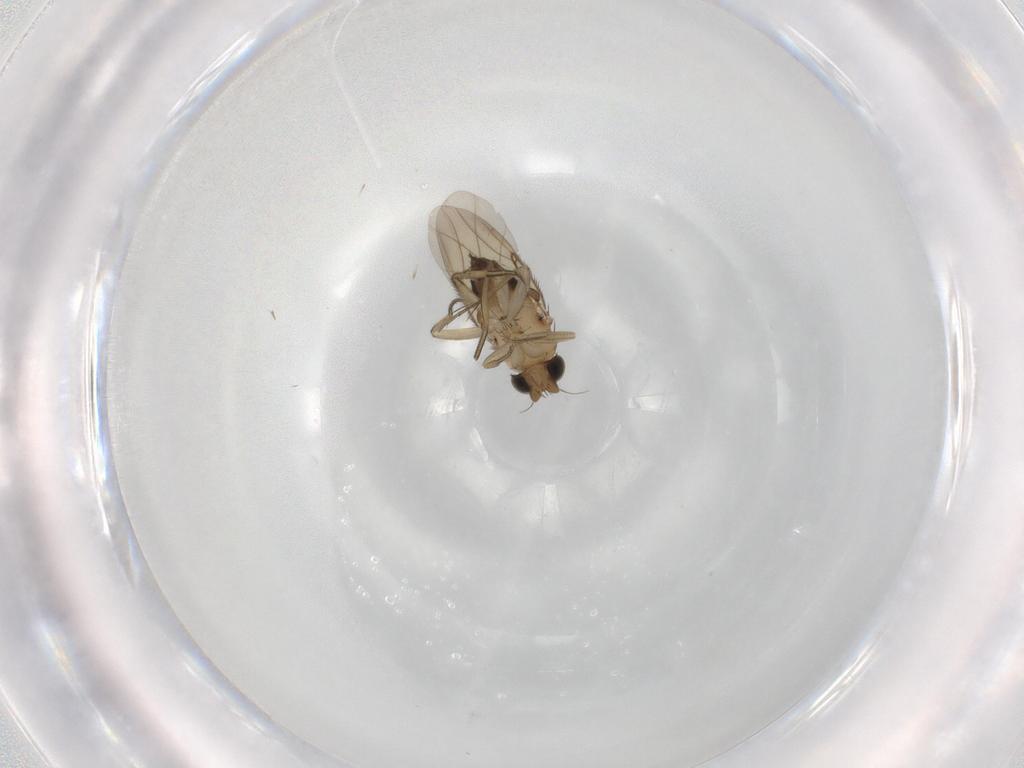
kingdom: Animalia
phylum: Arthropoda
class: Insecta
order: Diptera
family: Phoridae
